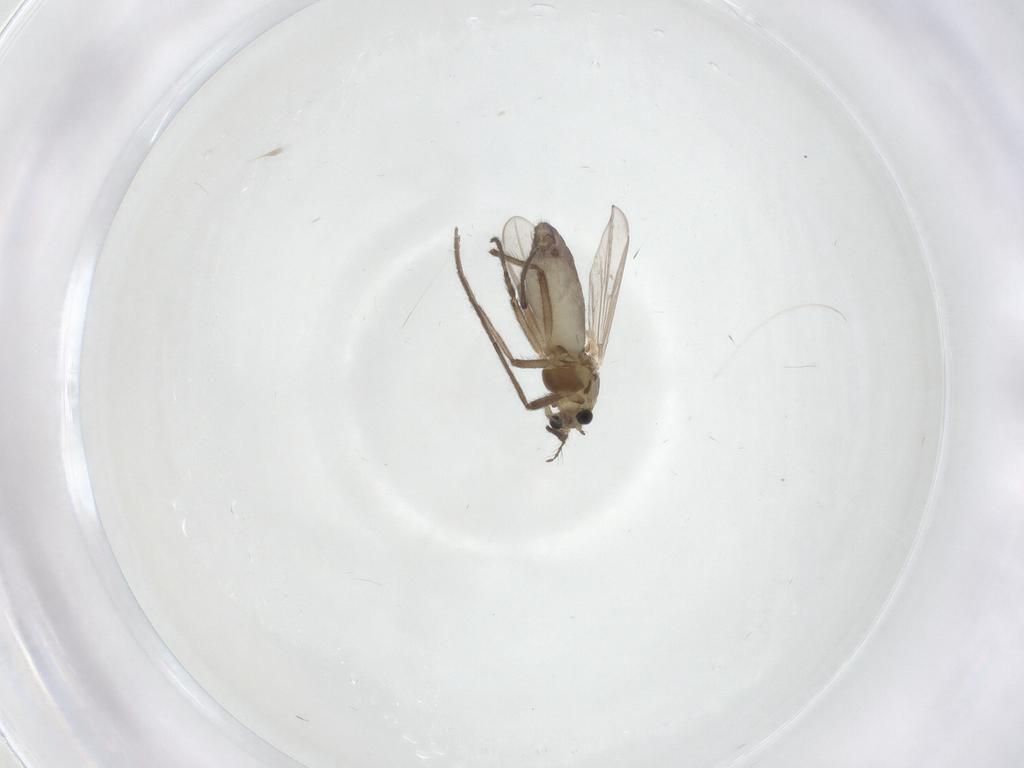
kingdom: Animalia
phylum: Arthropoda
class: Insecta
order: Diptera
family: Chironomidae
